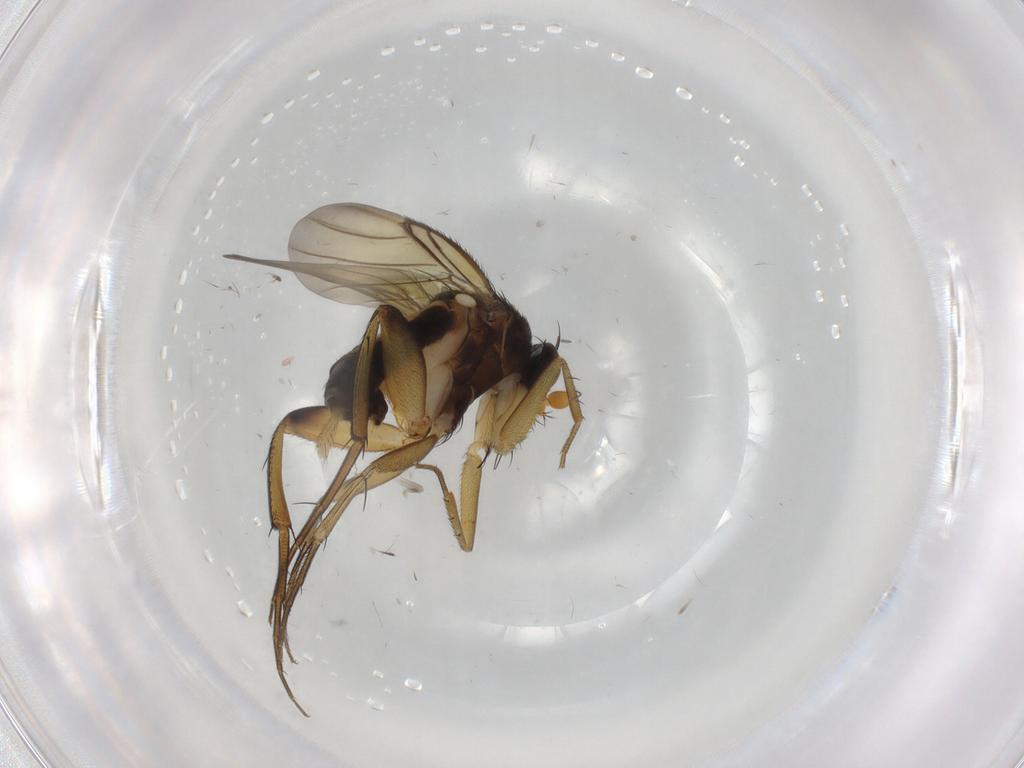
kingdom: Animalia
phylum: Arthropoda
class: Insecta
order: Diptera
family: Phoridae
